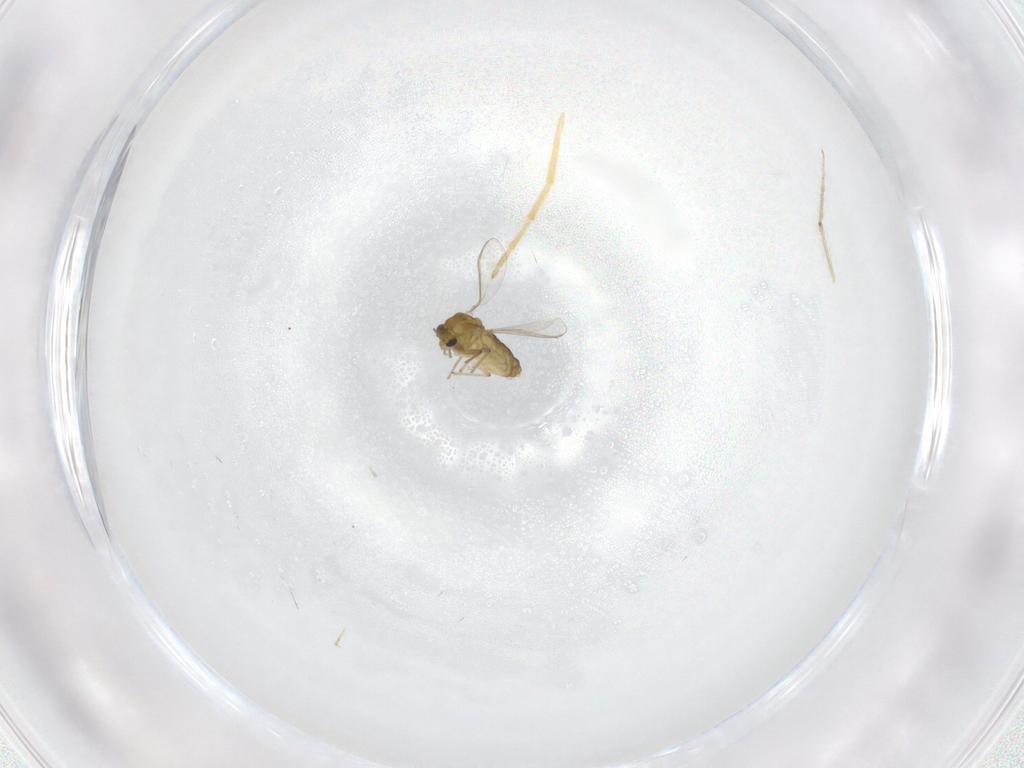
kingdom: Animalia
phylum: Arthropoda
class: Insecta
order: Diptera
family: Chironomidae
